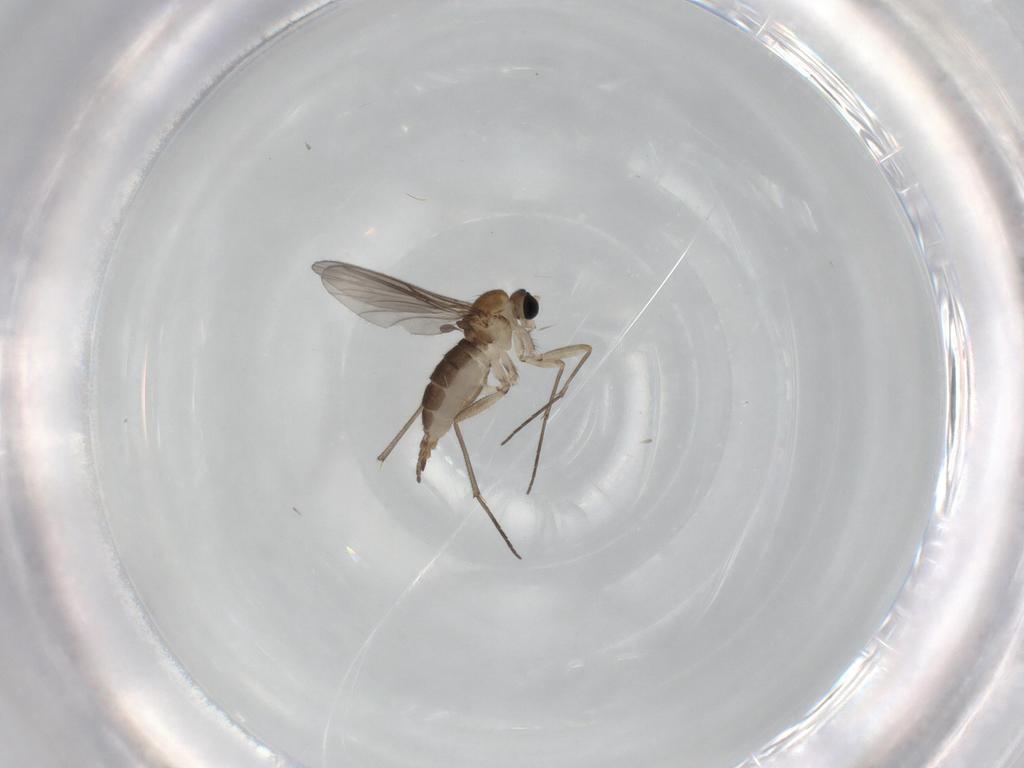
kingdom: Animalia
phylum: Arthropoda
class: Insecta
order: Diptera
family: Sciaridae
